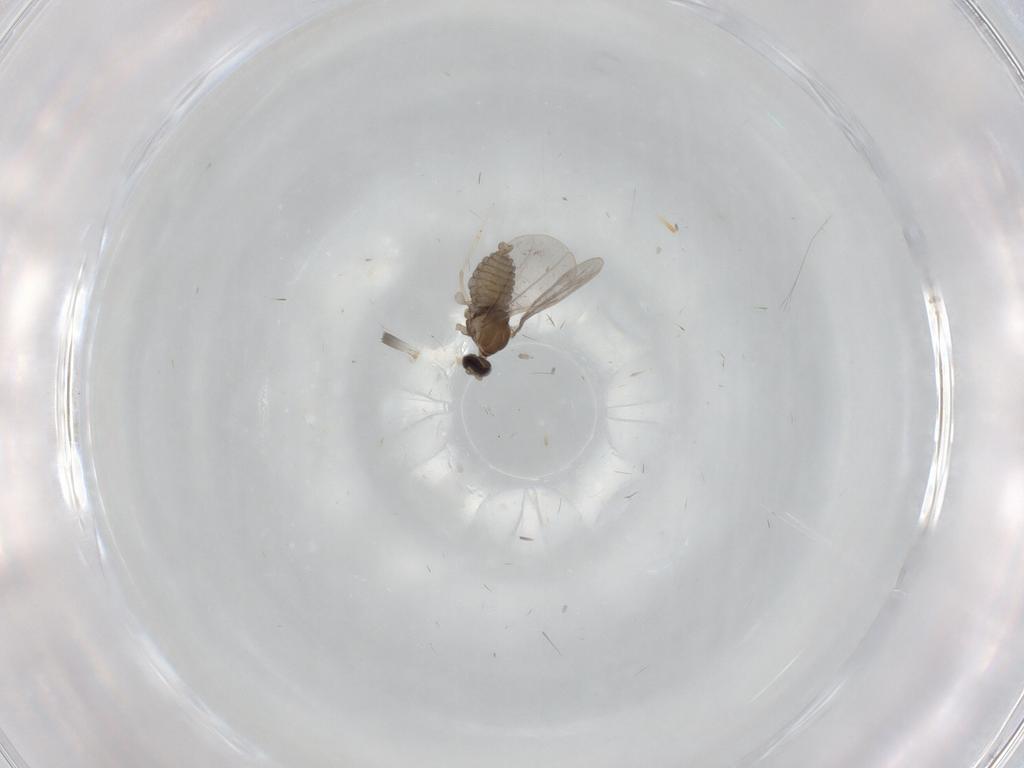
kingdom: Animalia
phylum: Arthropoda
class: Insecta
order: Diptera
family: Cecidomyiidae
